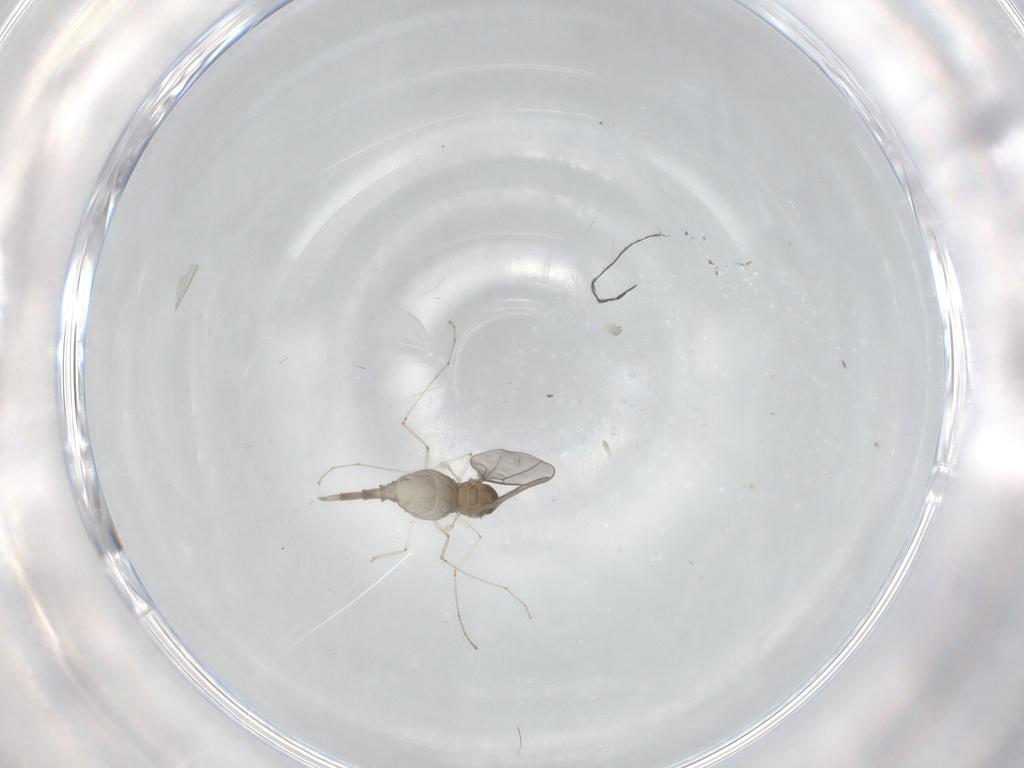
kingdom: Animalia
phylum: Arthropoda
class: Insecta
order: Diptera
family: Cecidomyiidae
